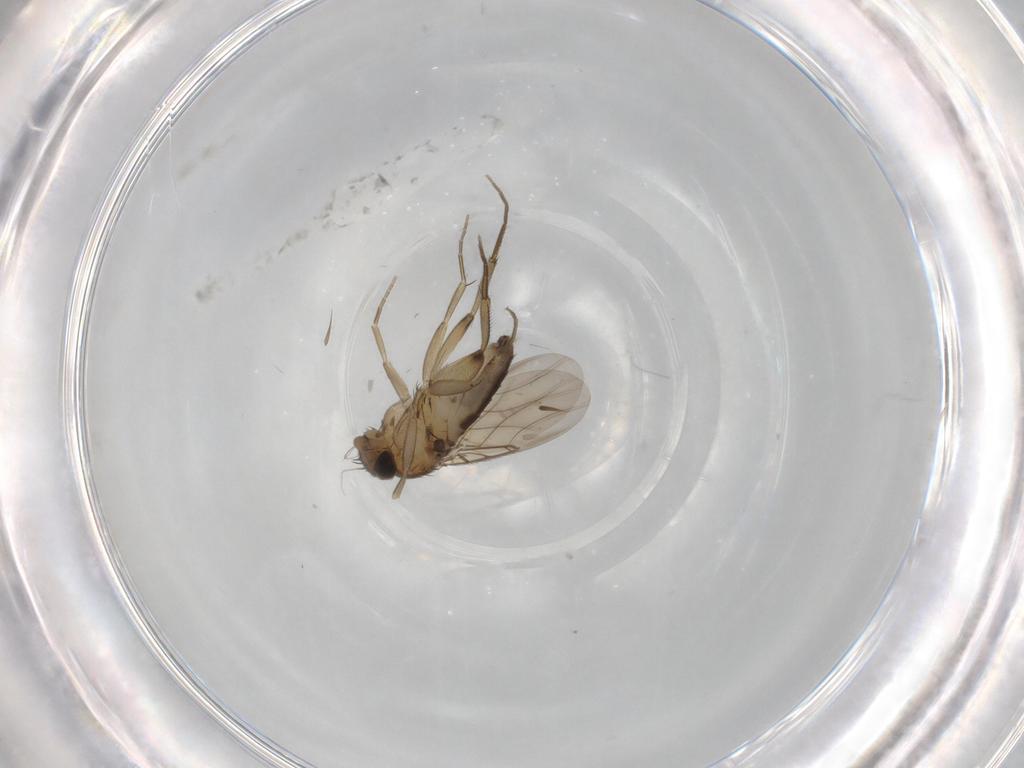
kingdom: Animalia
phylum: Arthropoda
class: Insecta
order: Diptera
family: Phoridae
